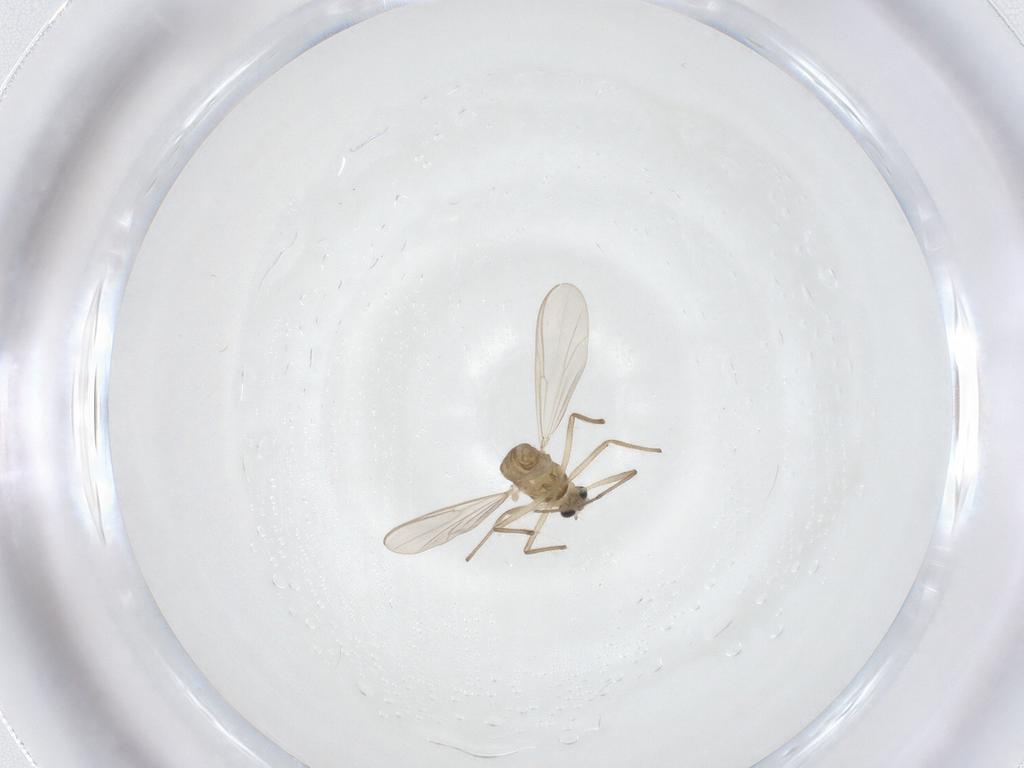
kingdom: Animalia
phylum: Arthropoda
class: Insecta
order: Diptera
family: Chironomidae
